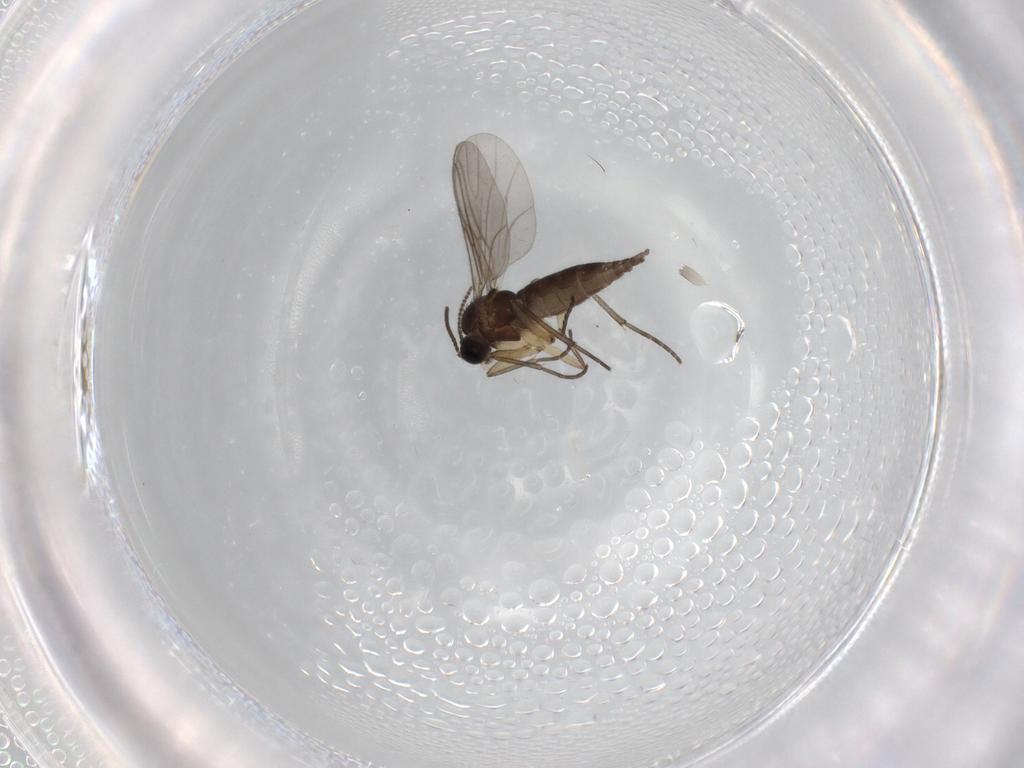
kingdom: Animalia
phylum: Arthropoda
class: Insecta
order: Diptera
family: Sciaridae
